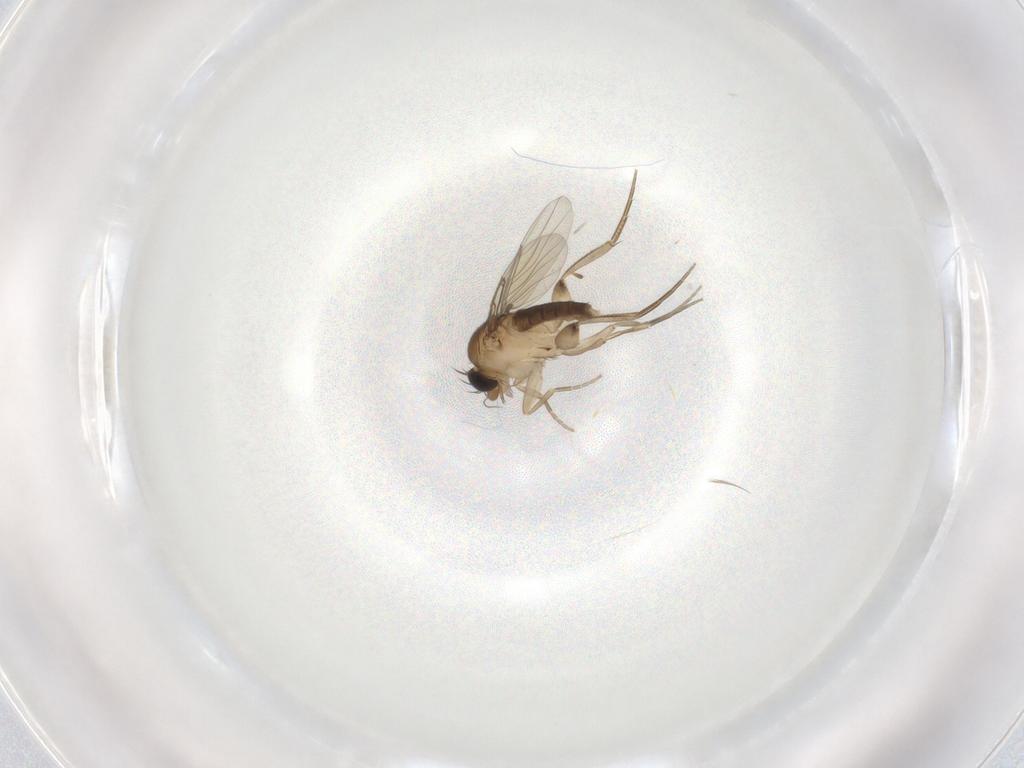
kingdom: Animalia
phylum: Arthropoda
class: Insecta
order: Diptera
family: Phoridae
